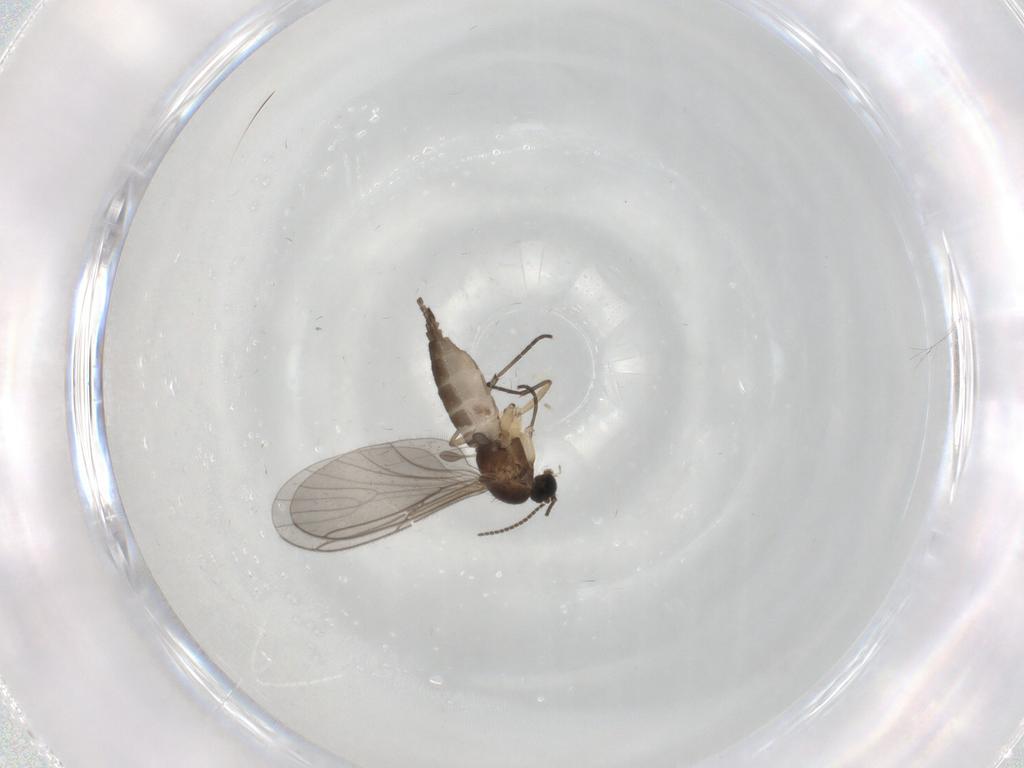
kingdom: Animalia
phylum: Arthropoda
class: Insecta
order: Diptera
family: Sciaridae
